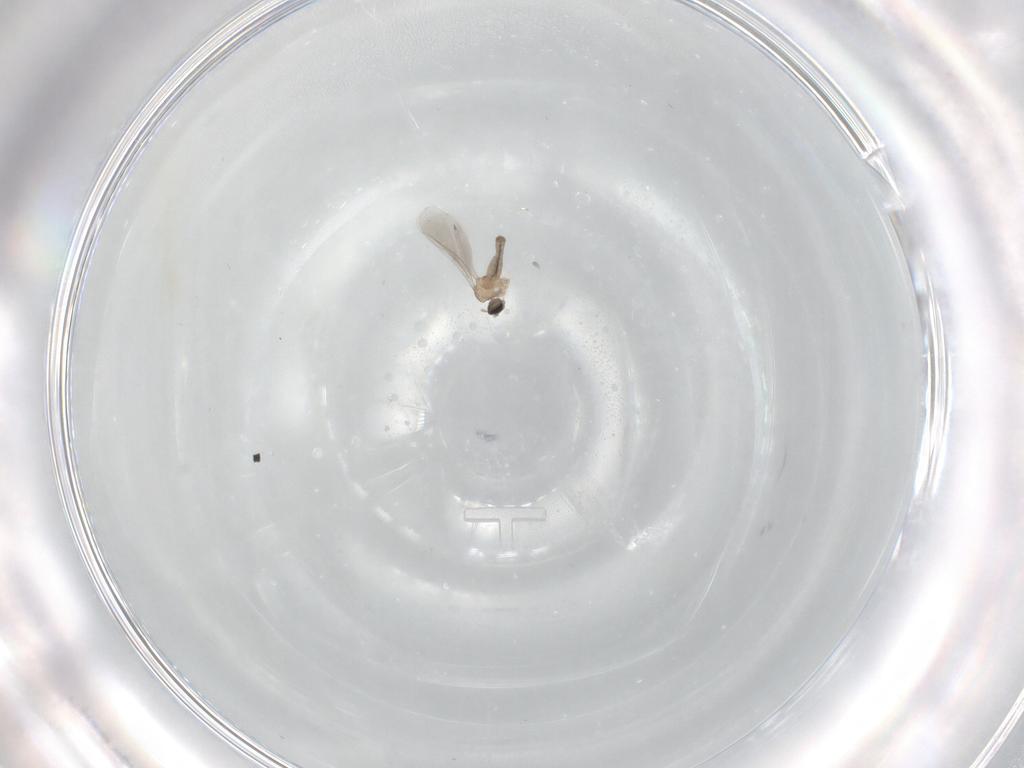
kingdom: Animalia
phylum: Arthropoda
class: Insecta
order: Diptera
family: Cecidomyiidae
